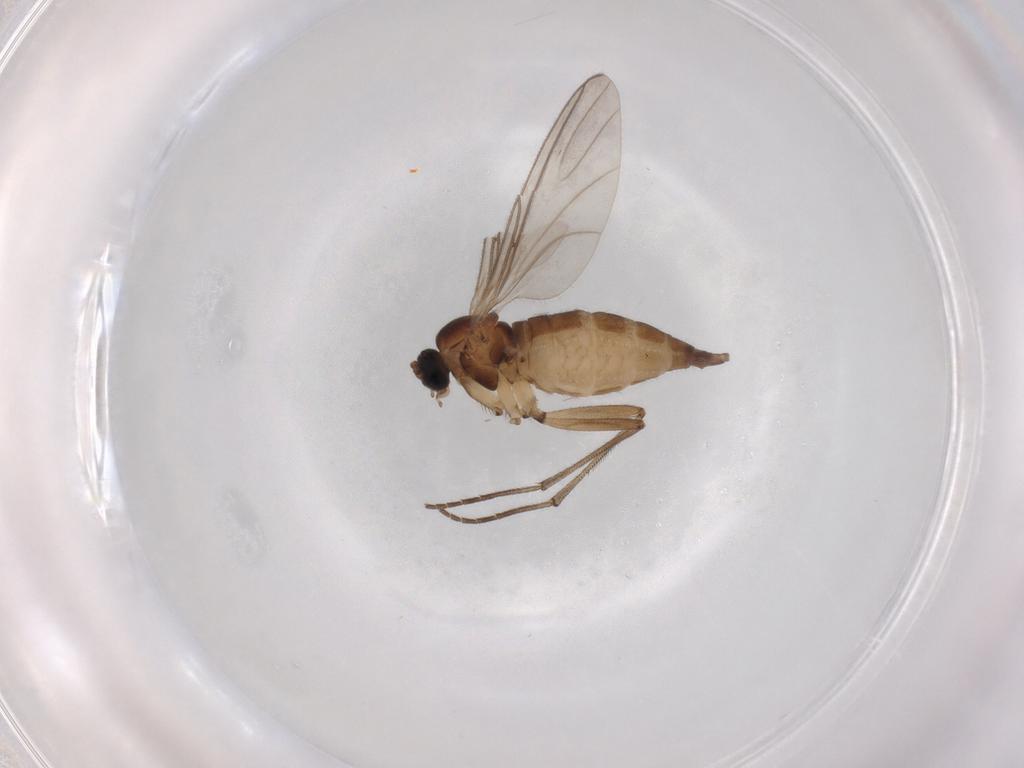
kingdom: Animalia
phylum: Arthropoda
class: Insecta
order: Diptera
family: Sciaridae
